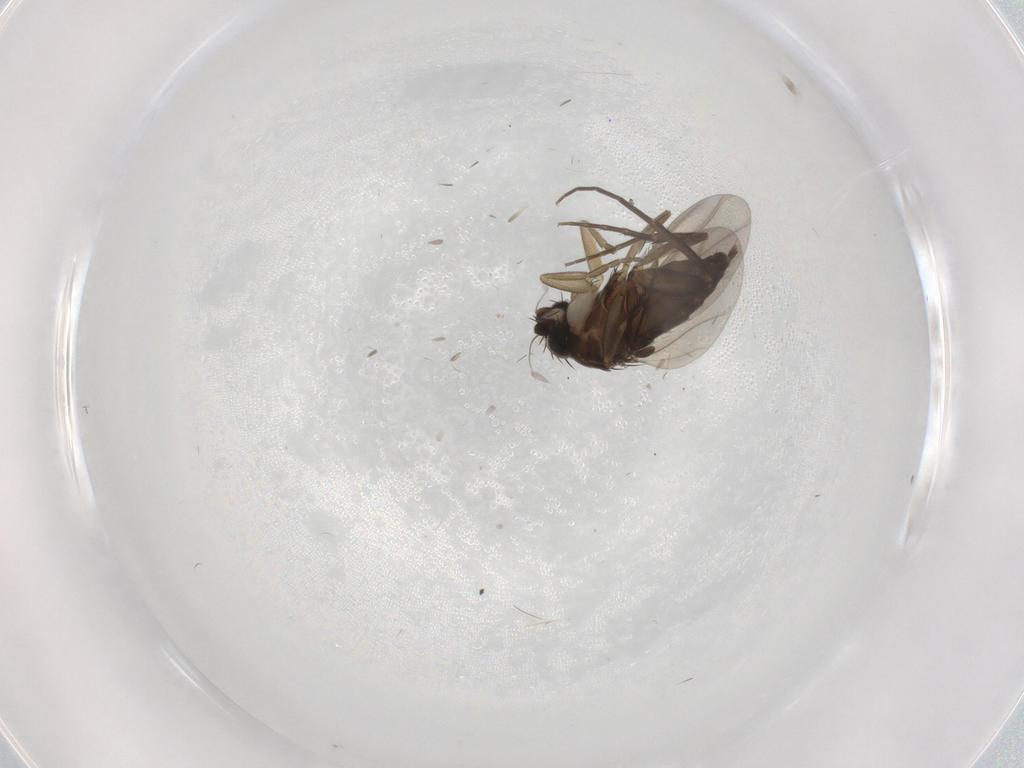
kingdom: Animalia
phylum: Arthropoda
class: Insecta
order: Diptera
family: Phoridae
